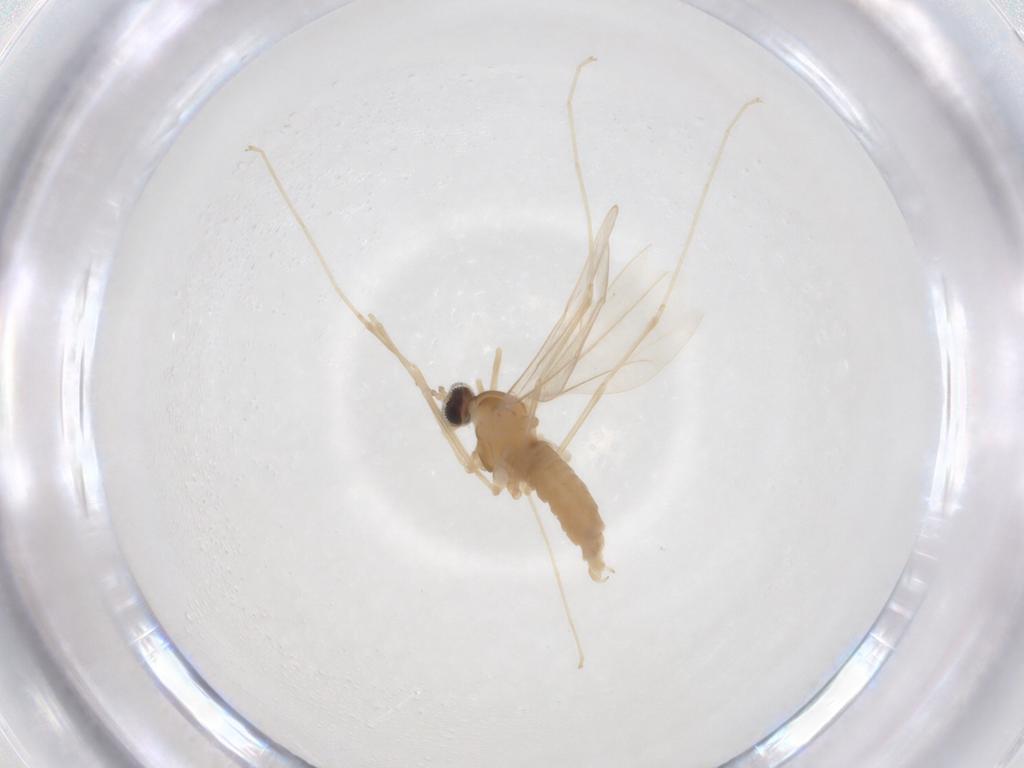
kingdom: Animalia
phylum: Arthropoda
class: Insecta
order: Diptera
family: Cecidomyiidae
